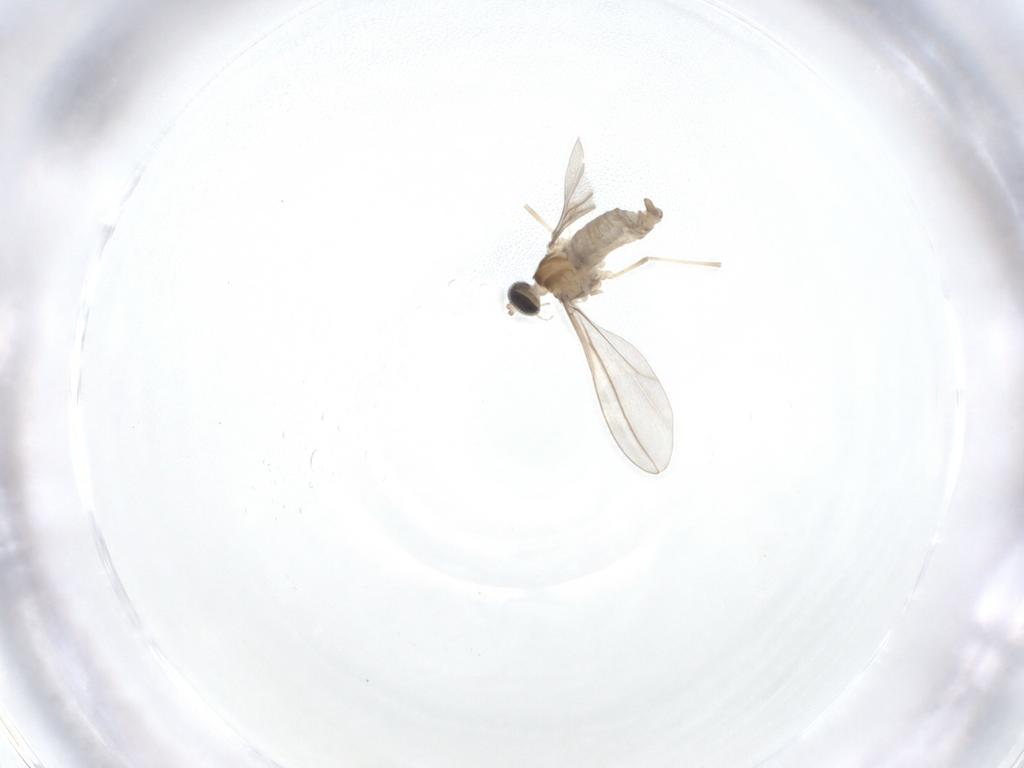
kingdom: Animalia
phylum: Arthropoda
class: Insecta
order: Diptera
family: Cecidomyiidae
